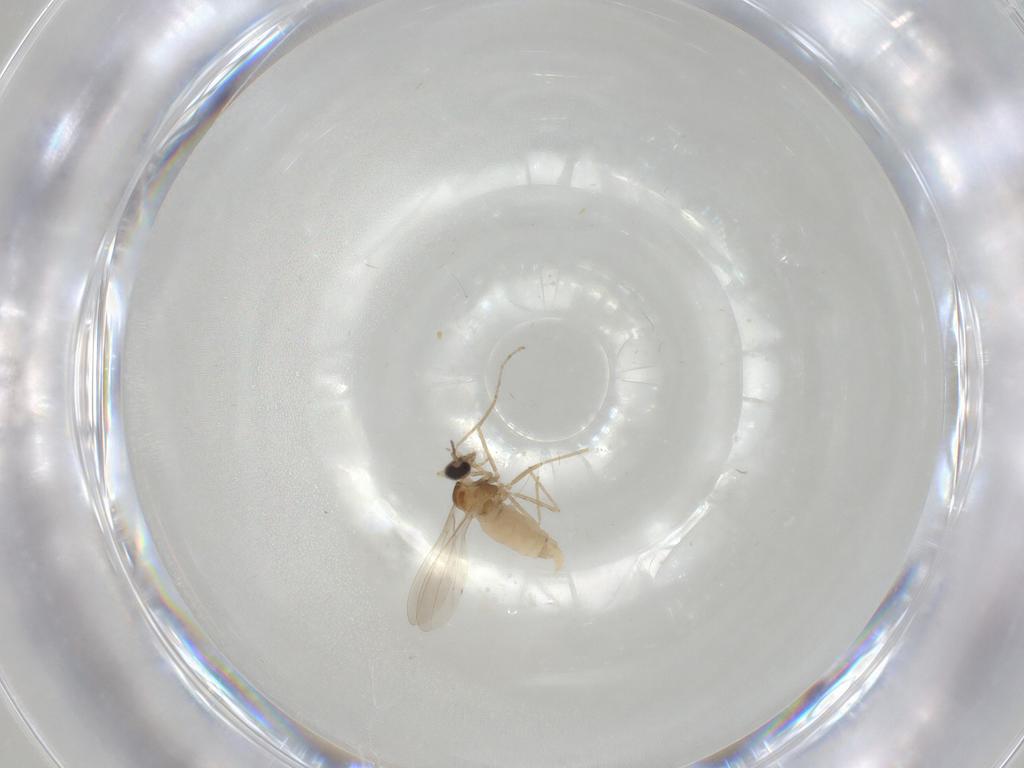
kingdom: Animalia
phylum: Arthropoda
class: Insecta
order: Diptera
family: Cecidomyiidae
